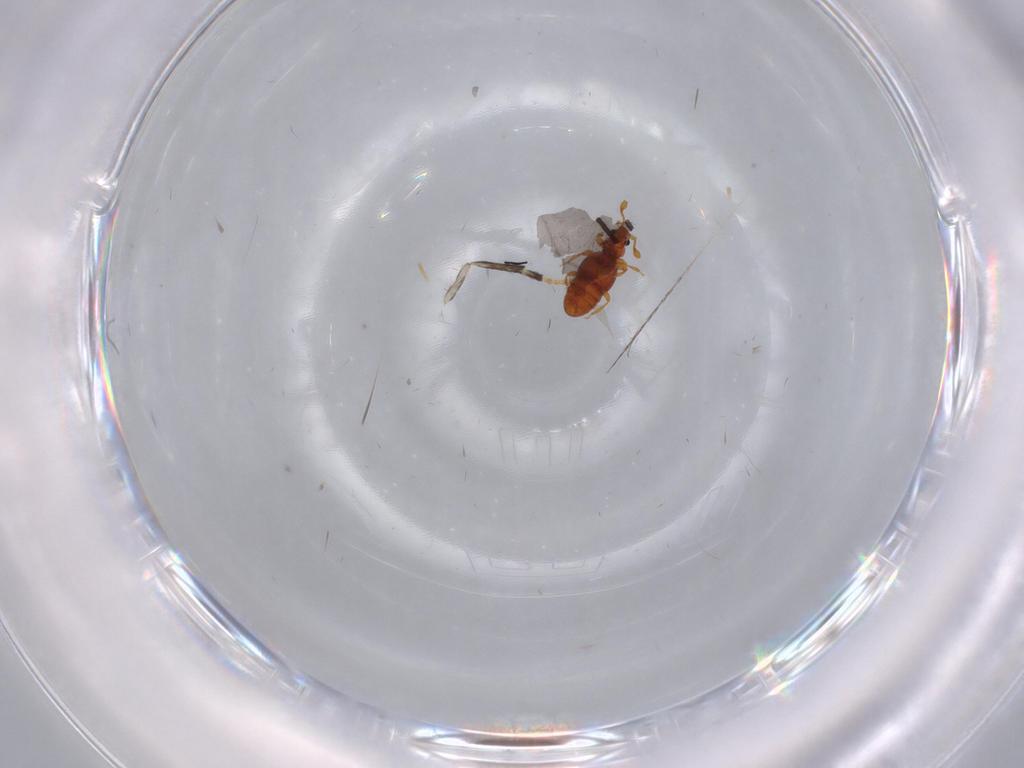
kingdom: Animalia
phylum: Arthropoda
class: Insecta
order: Coleoptera
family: Staphylinidae
